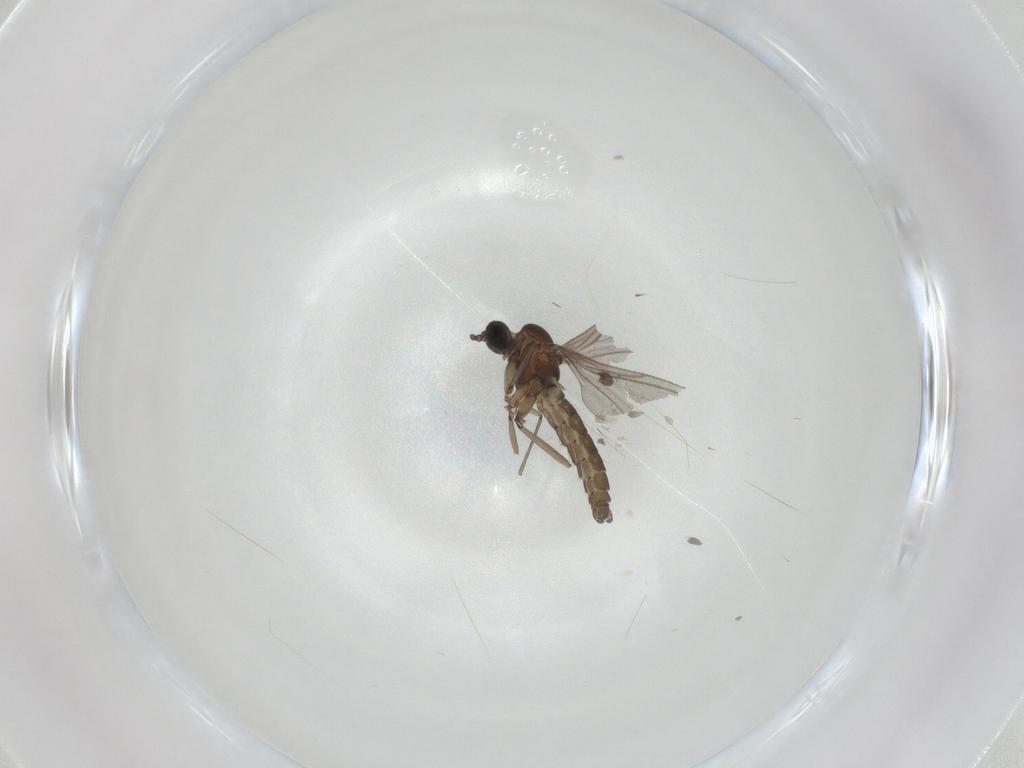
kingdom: Animalia
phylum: Arthropoda
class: Insecta
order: Diptera
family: Sciaridae
